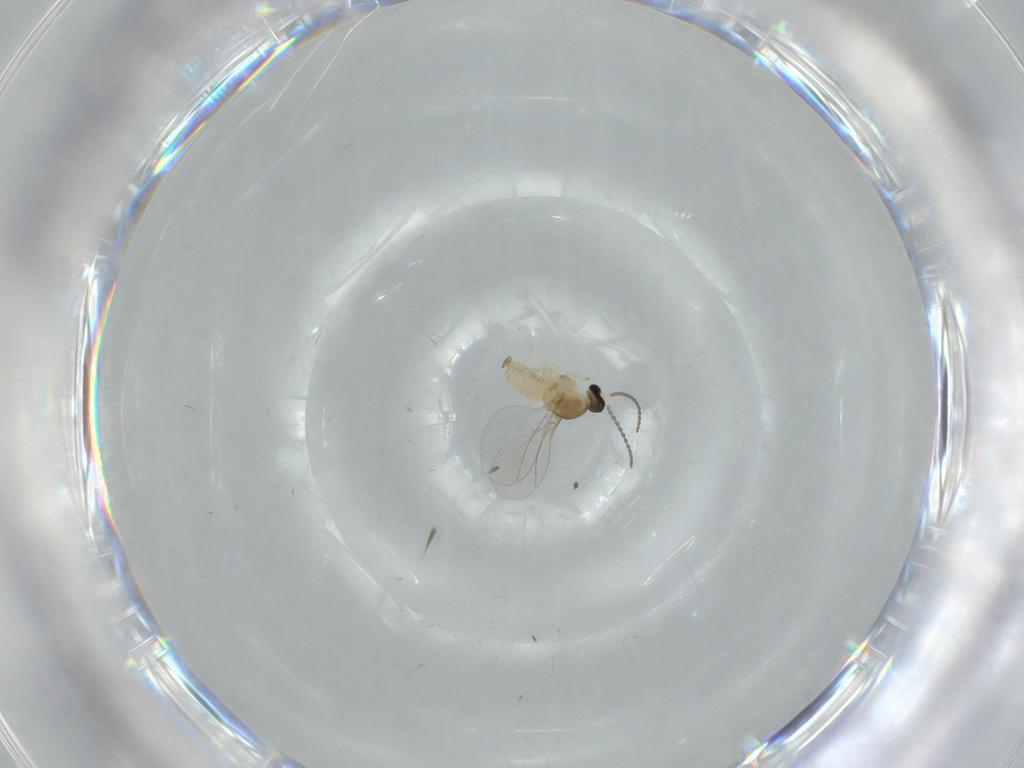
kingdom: Animalia
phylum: Arthropoda
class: Insecta
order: Diptera
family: Cecidomyiidae
